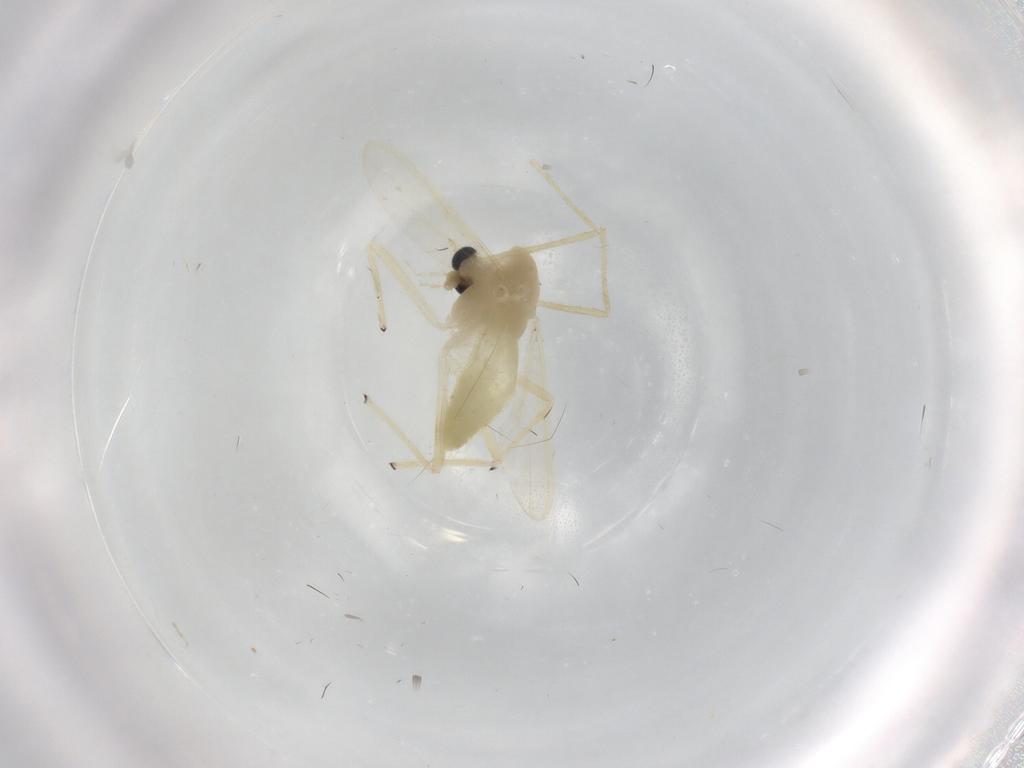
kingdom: Animalia
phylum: Arthropoda
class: Insecta
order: Diptera
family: Chironomidae
